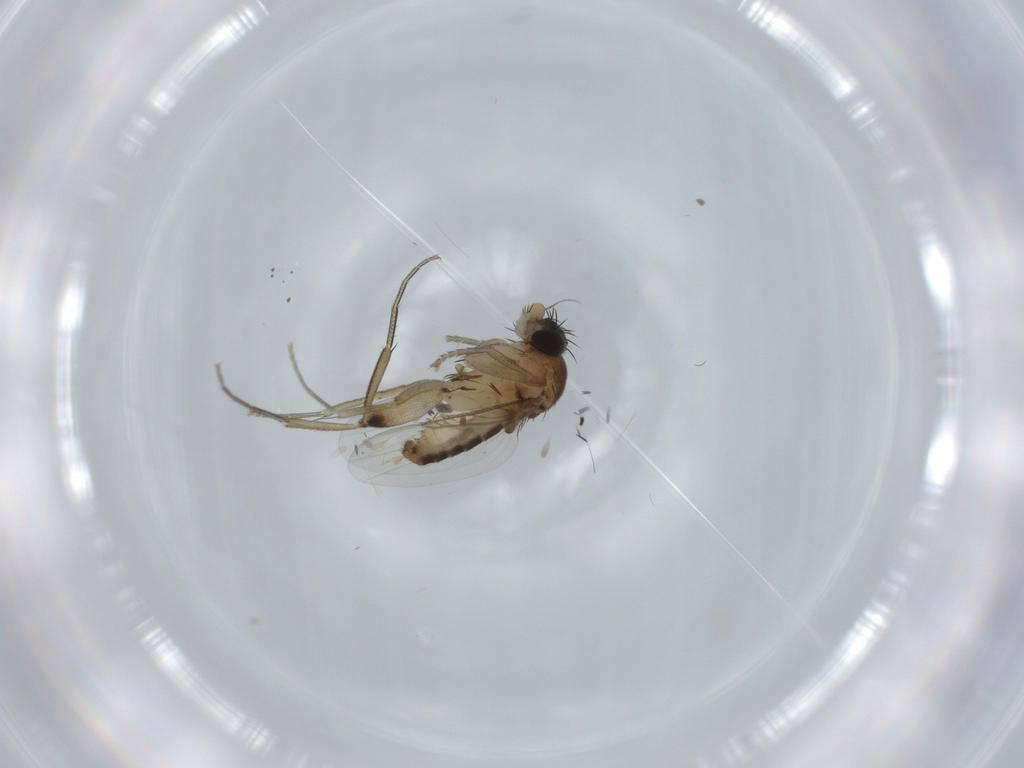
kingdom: Animalia
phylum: Arthropoda
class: Insecta
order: Diptera
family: Phoridae
